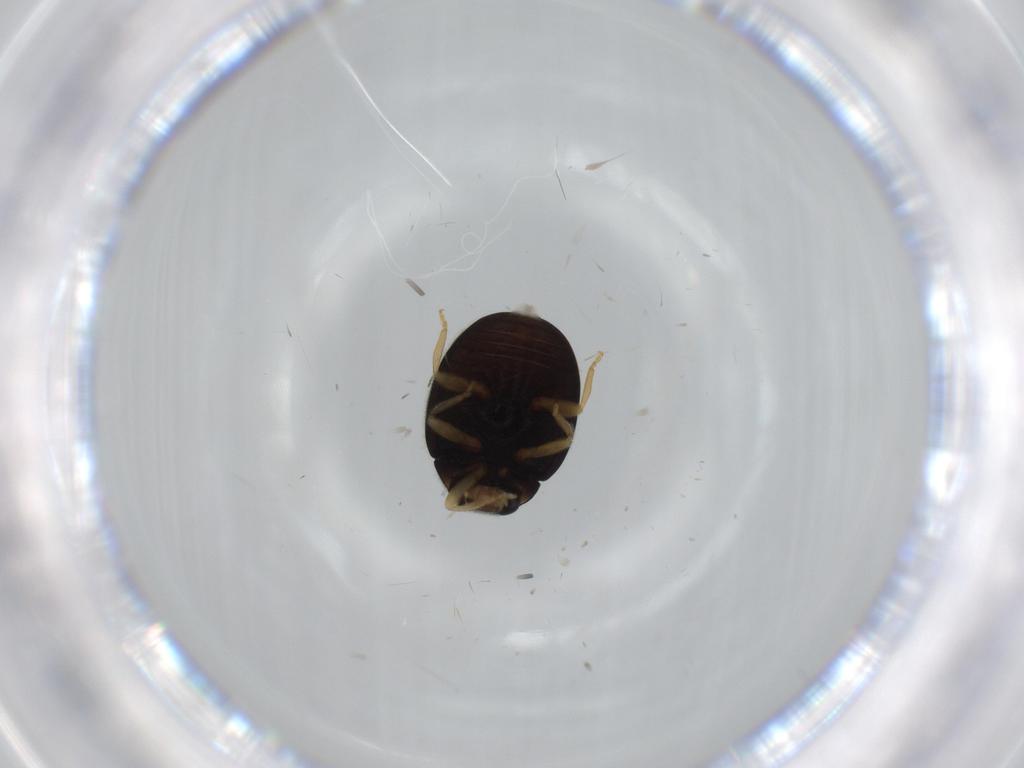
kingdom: Animalia
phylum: Arthropoda
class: Insecta
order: Coleoptera
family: Coccinellidae
